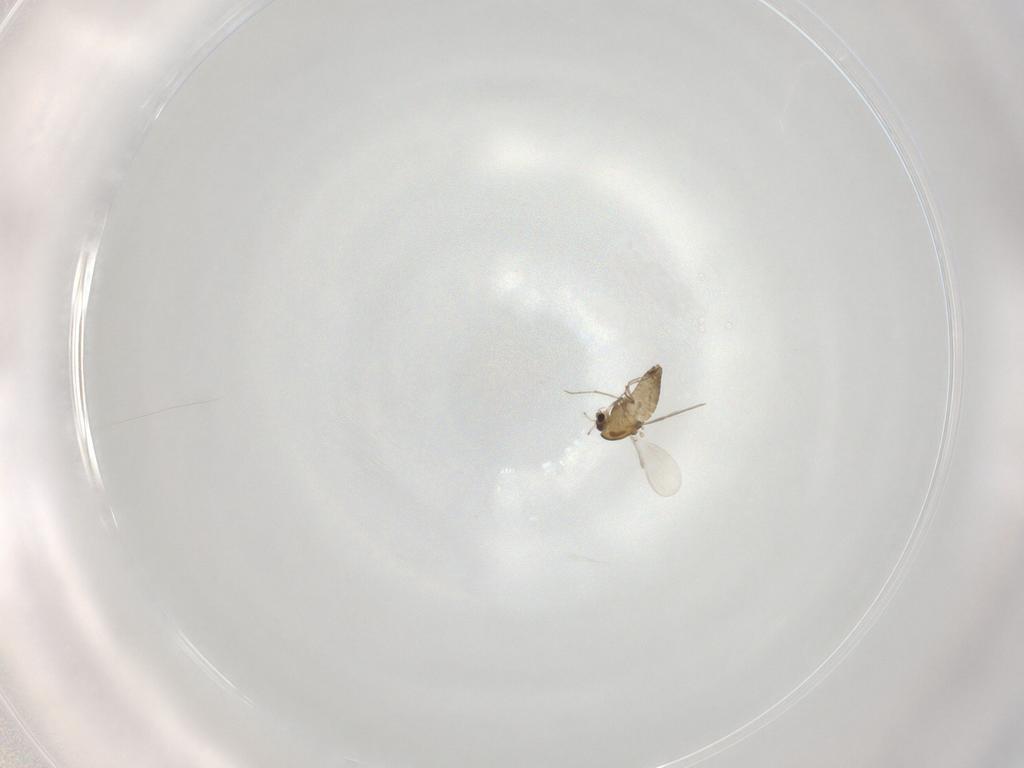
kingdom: Animalia
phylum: Arthropoda
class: Insecta
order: Diptera
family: Chironomidae
